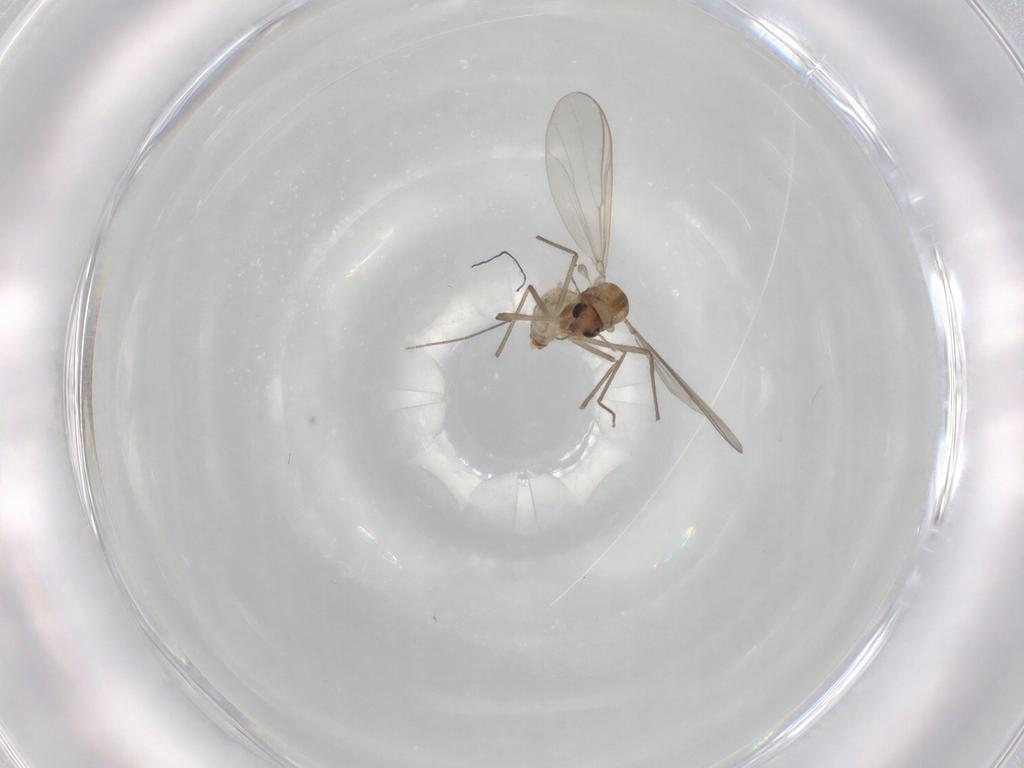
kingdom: Animalia
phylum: Arthropoda
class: Insecta
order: Diptera
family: Chironomidae
